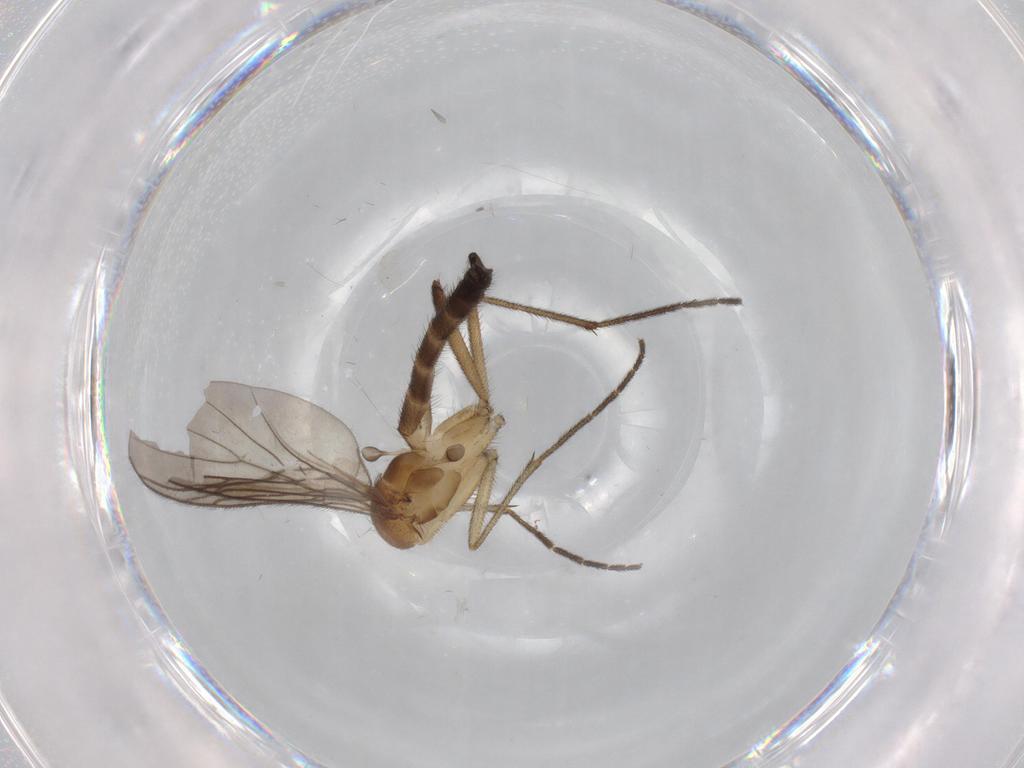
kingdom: Animalia
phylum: Arthropoda
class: Insecta
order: Diptera
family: Keroplatidae
